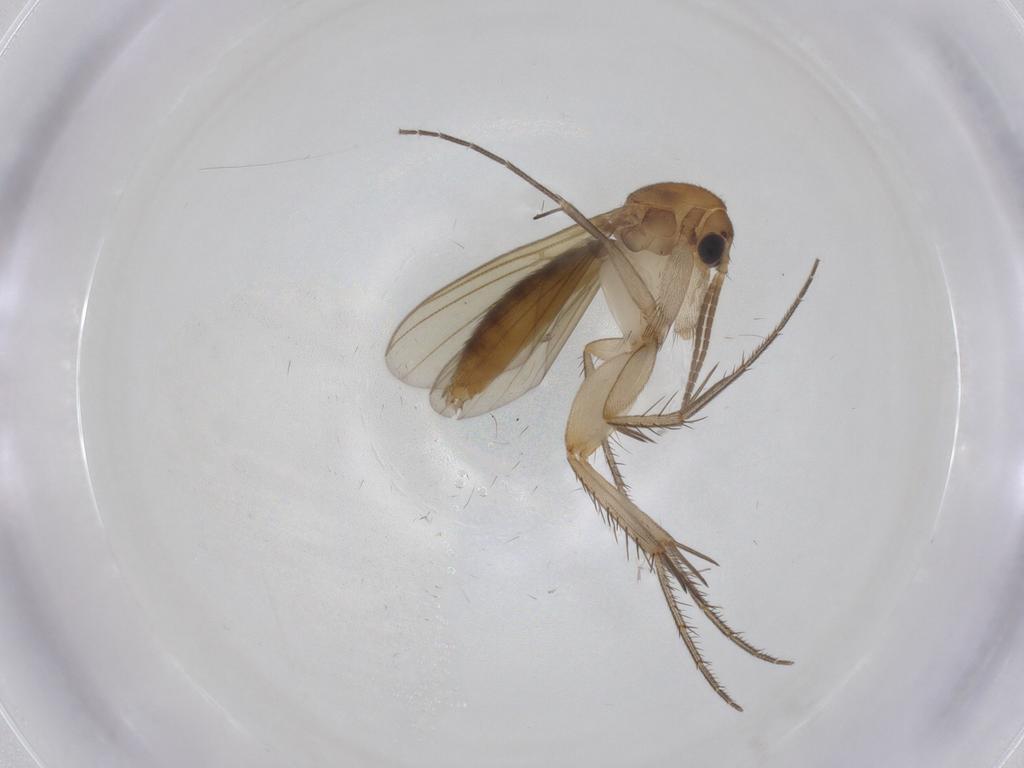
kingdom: Animalia
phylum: Arthropoda
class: Insecta
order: Diptera
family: Mycetophilidae
